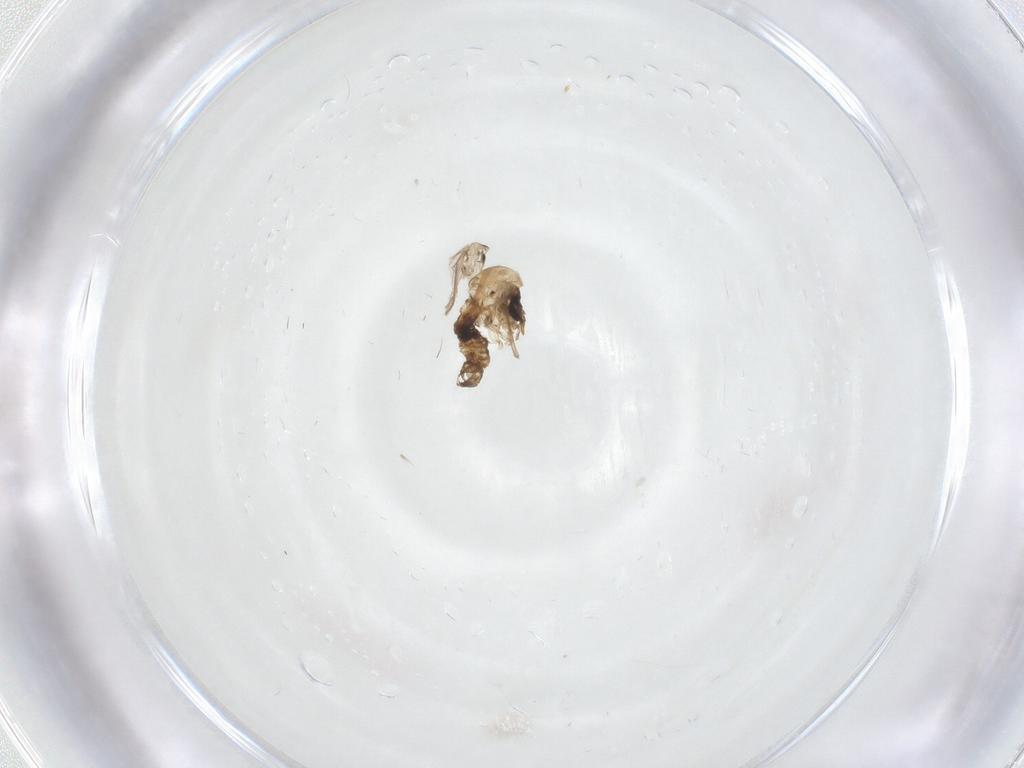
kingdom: Animalia
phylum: Arthropoda
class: Insecta
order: Diptera
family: Psychodidae
